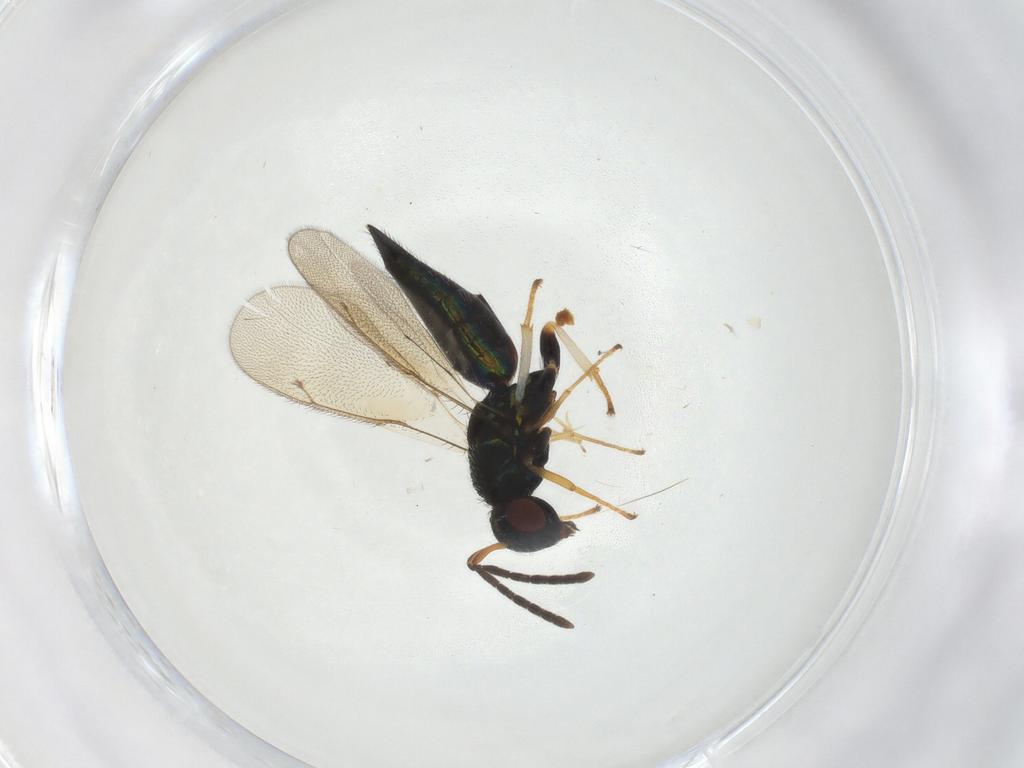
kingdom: Animalia
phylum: Arthropoda
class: Insecta
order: Hymenoptera
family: Pteromalidae
